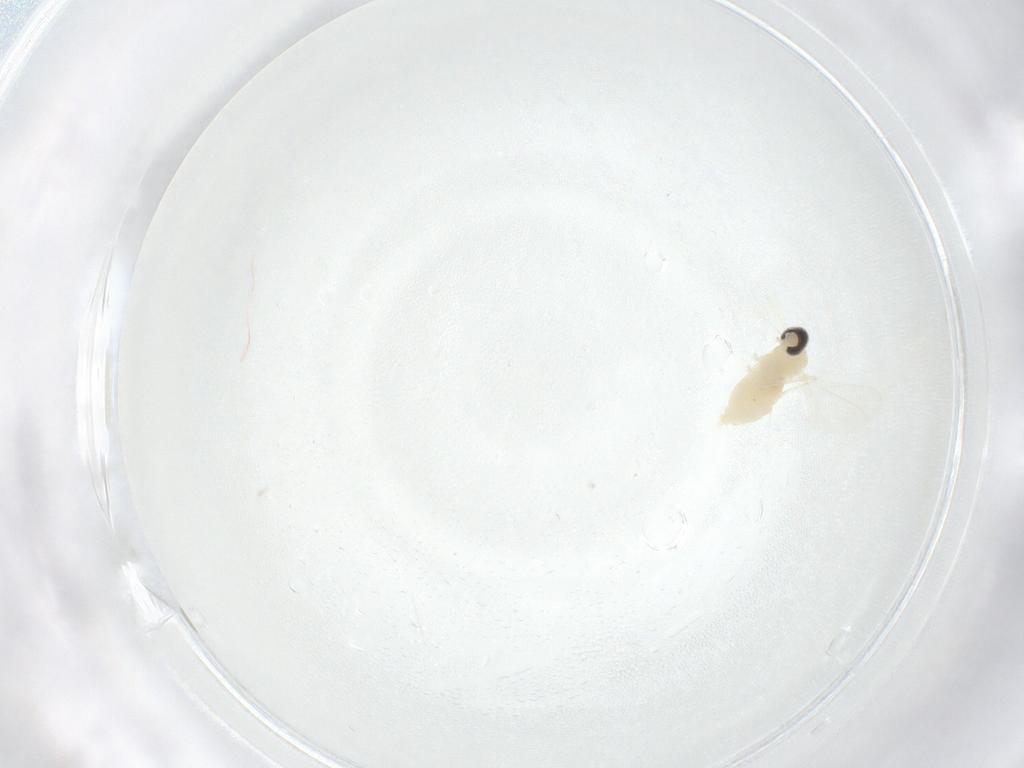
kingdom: Animalia
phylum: Arthropoda
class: Insecta
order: Diptera
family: Cecidomyiidae
